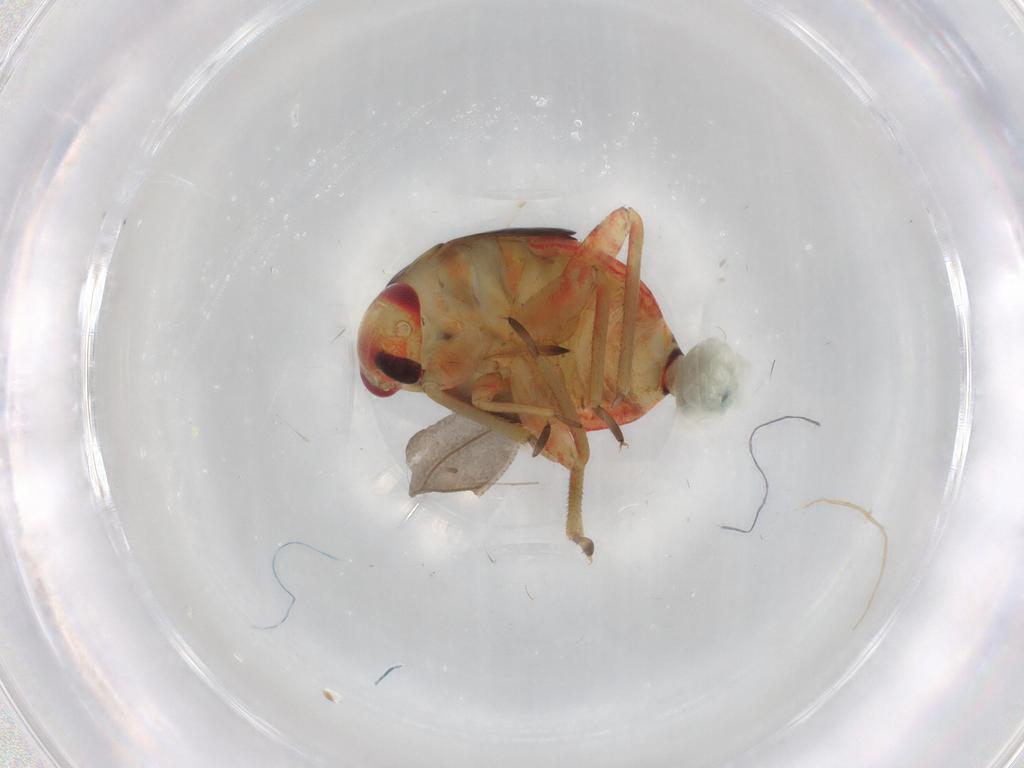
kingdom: Animalia
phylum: Arthropoda
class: Insecta
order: Hemiptera
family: Miridae
